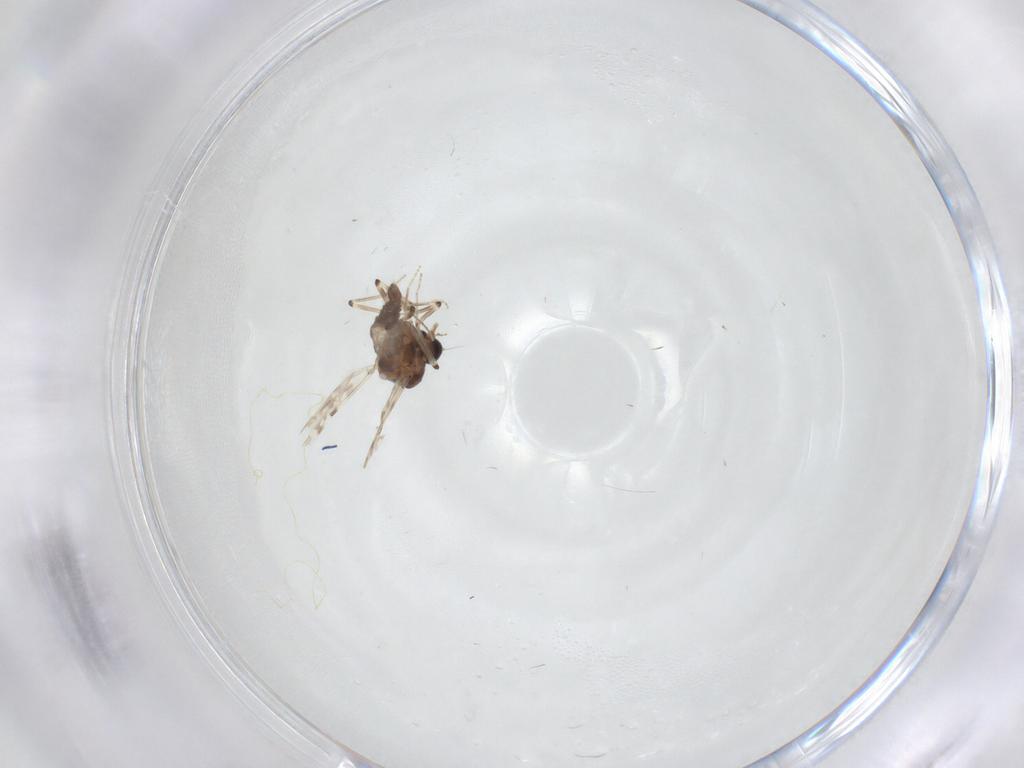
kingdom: Animalia
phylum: Arthropoda
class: Insecta
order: Diptera
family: Ceratopogonidae
